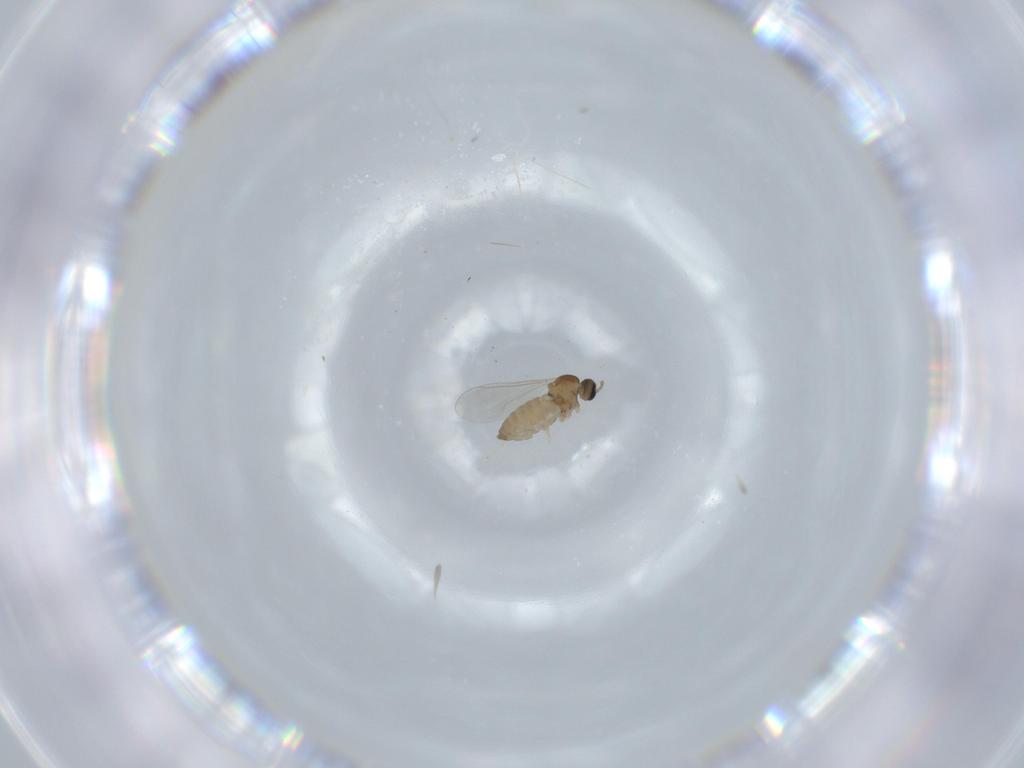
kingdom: Animalia
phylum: Arthropoda
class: Insecta
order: Diptera
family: Cecidomyiidae
